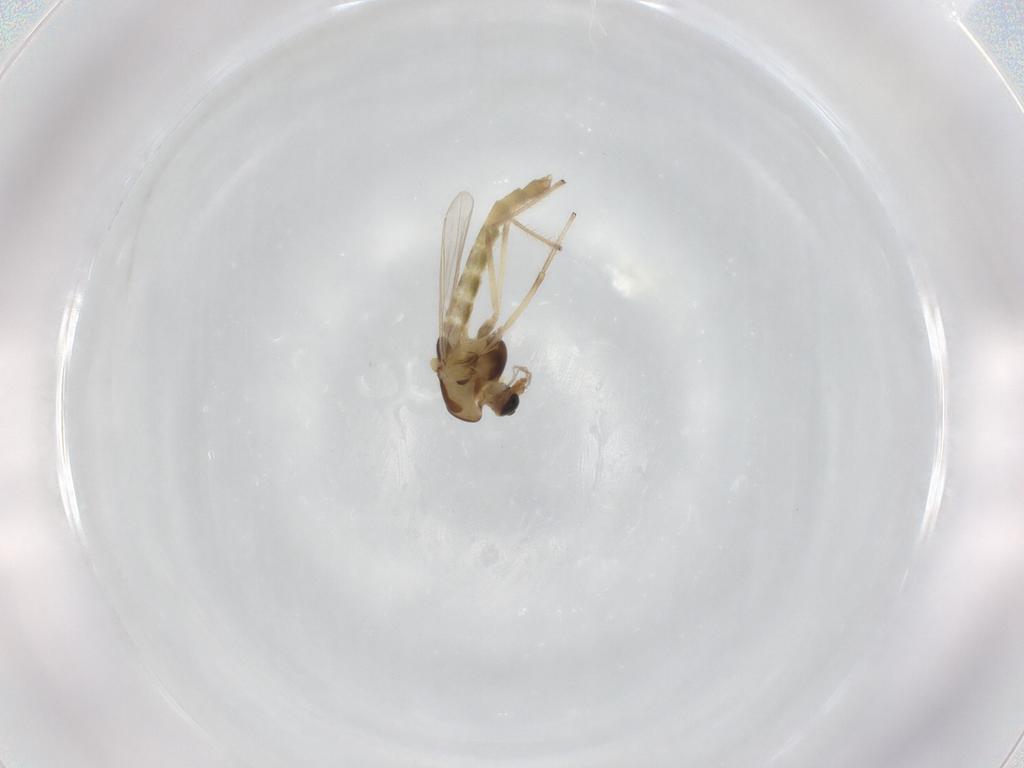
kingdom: Animalia
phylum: Arthropoda
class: Insecta
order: Diptera
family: Chironomidae
